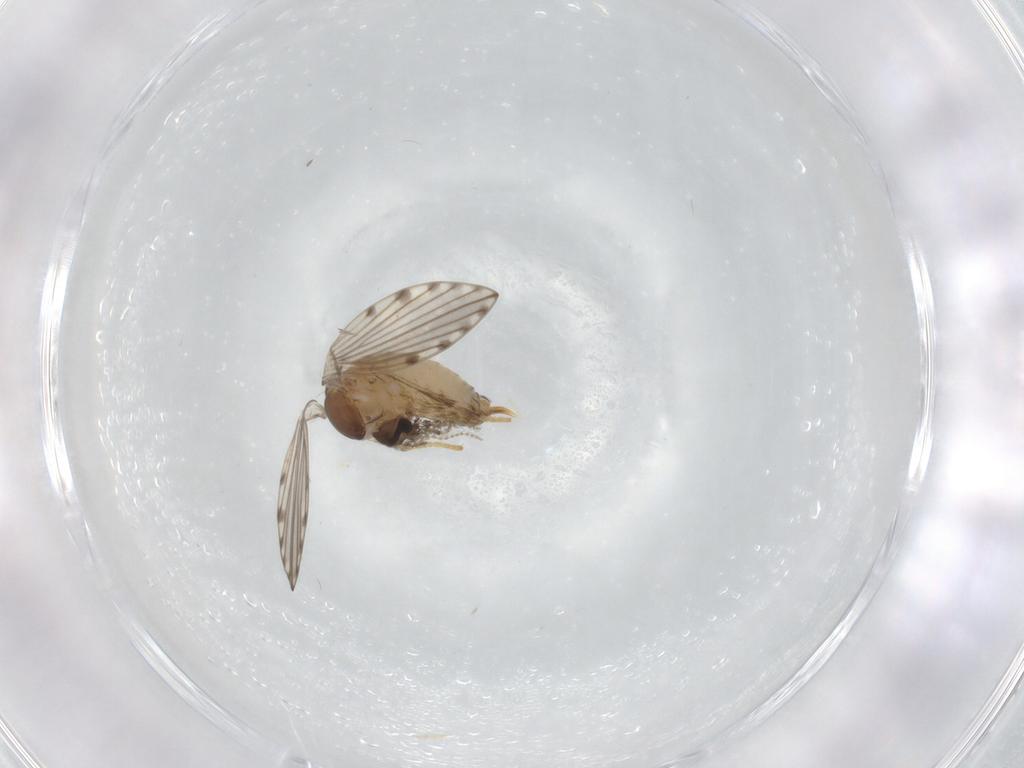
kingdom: Animalia
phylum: Arthropoda
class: Insecta
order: Diptera
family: Psychodidae
